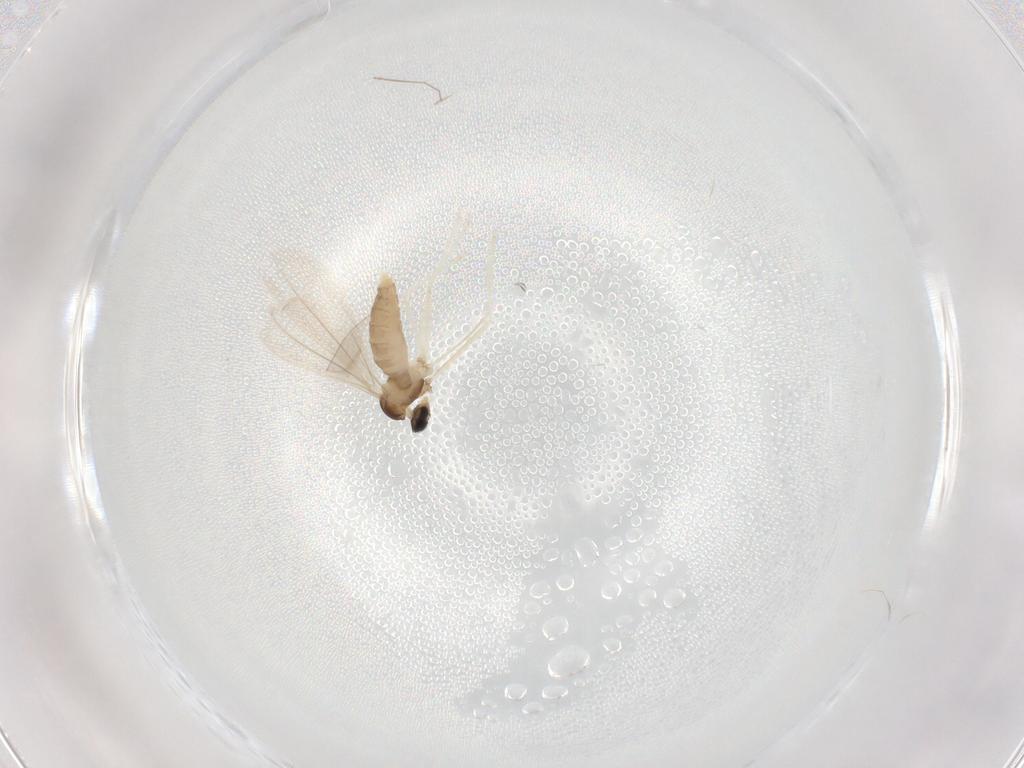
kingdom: Animalia
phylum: Arthropoda
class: Insecta
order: Diptera
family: Cecidomyiidae
